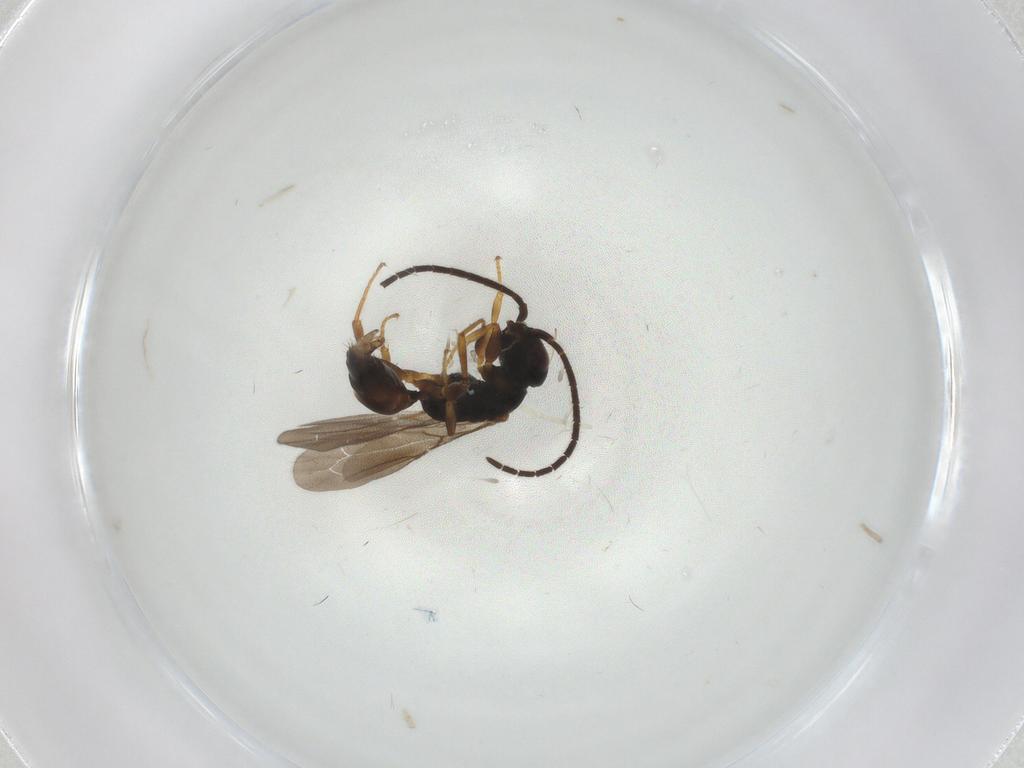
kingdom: Animalia
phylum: Arthropoda
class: Insecta
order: Hymenoptera
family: Bethylidae
